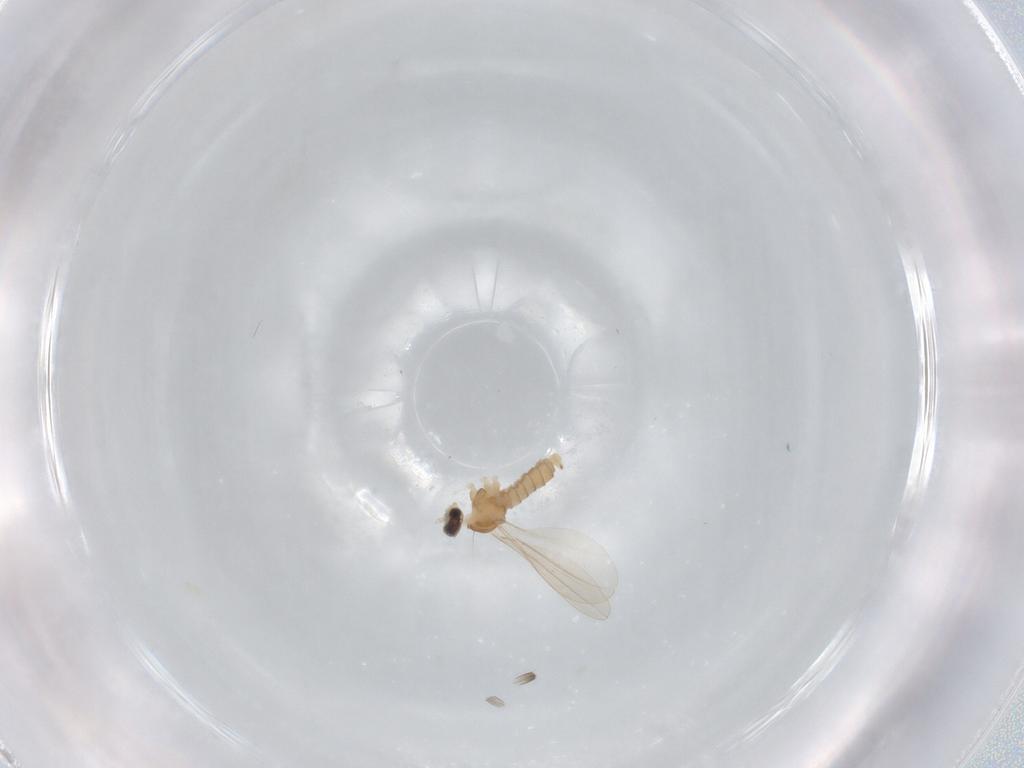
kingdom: Animalia
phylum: Arthropoda
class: Insecta
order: Diptera
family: Cecidomyiidae
